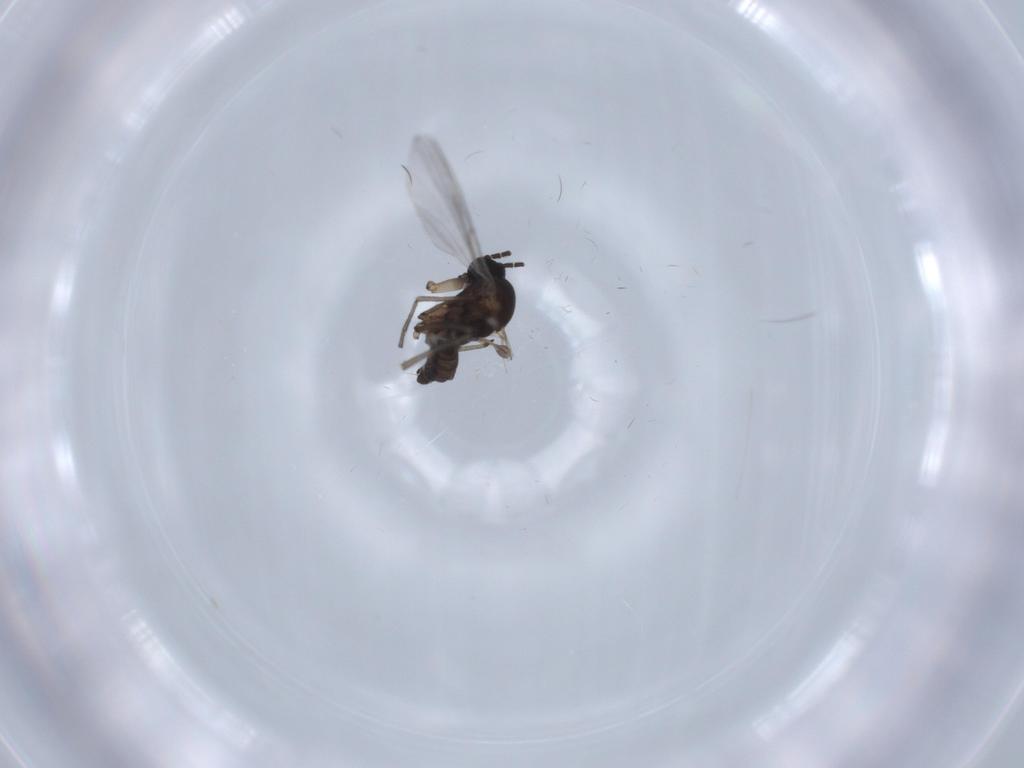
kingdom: Animalia
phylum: Arthropoda
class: Insecta
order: Diptera
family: Sciaridae
